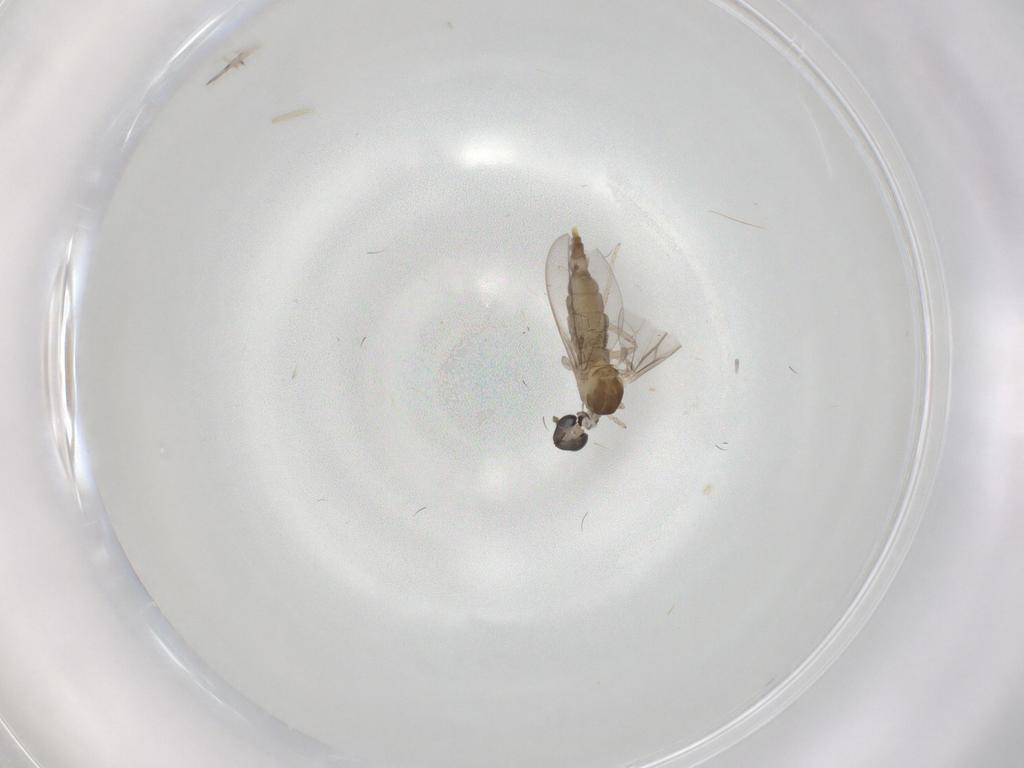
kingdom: Animalia
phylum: Arthropoda
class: Insecta
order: Diptera
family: Cecidomyiidae
